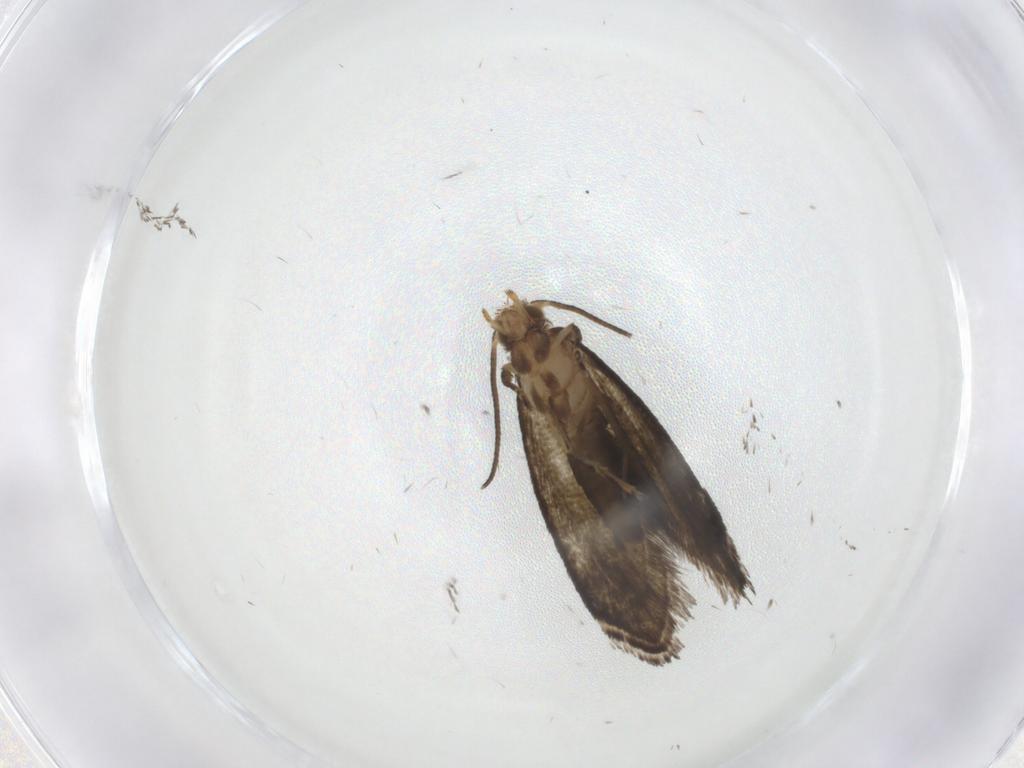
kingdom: Animalia
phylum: Arthropoda
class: Insecta
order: Lepidoptera
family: Tineidae
